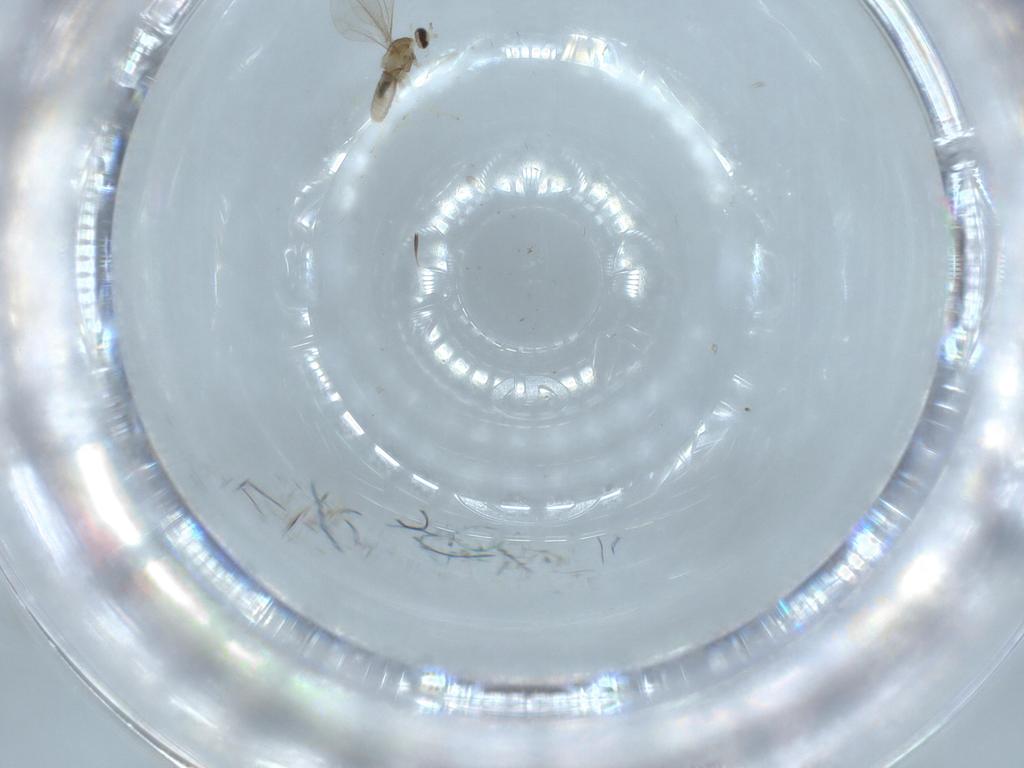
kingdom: Animalia
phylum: Arthropoda
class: Insecta
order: Diptera
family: Cecidomyiidae
